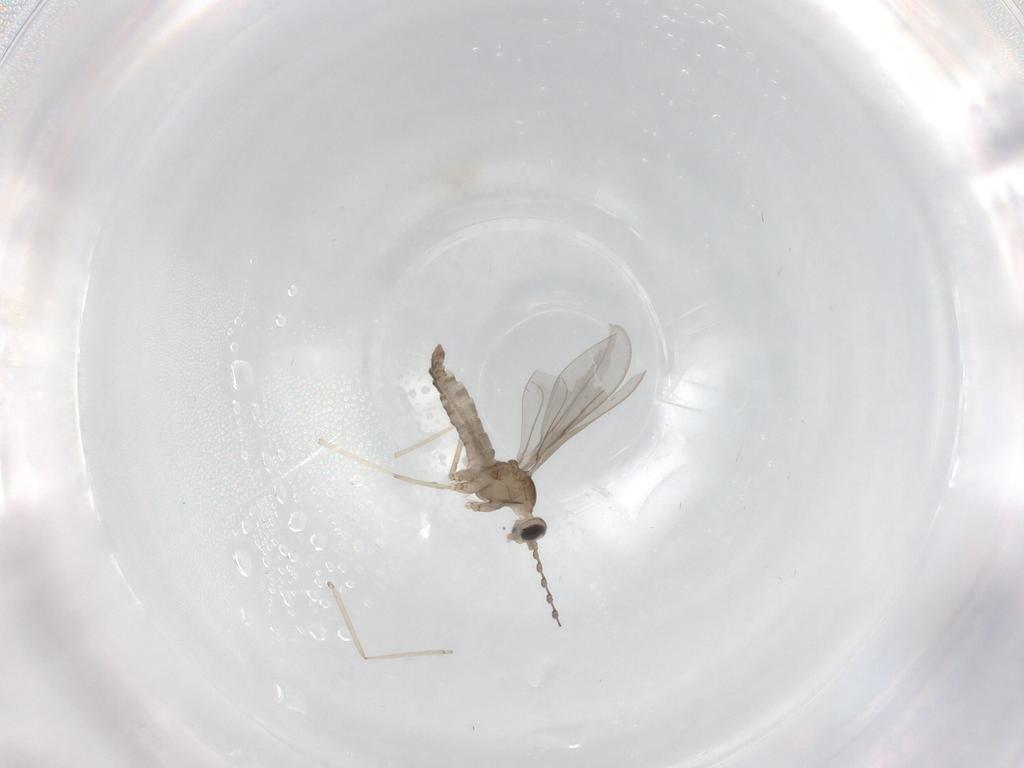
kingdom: Animalia
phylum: Arthropoda
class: Insecta
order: Diptera
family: Cecidomyiidae
